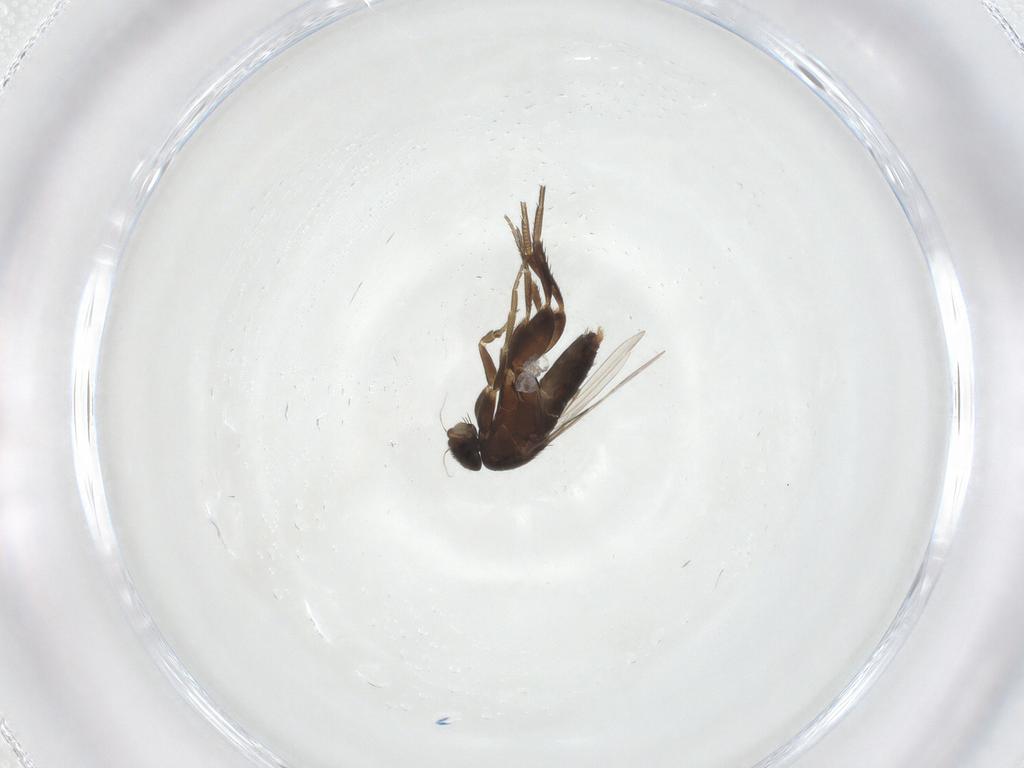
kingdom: Animalia
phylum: Arthropoda
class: Insecta
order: Diptera
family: Phoridae
